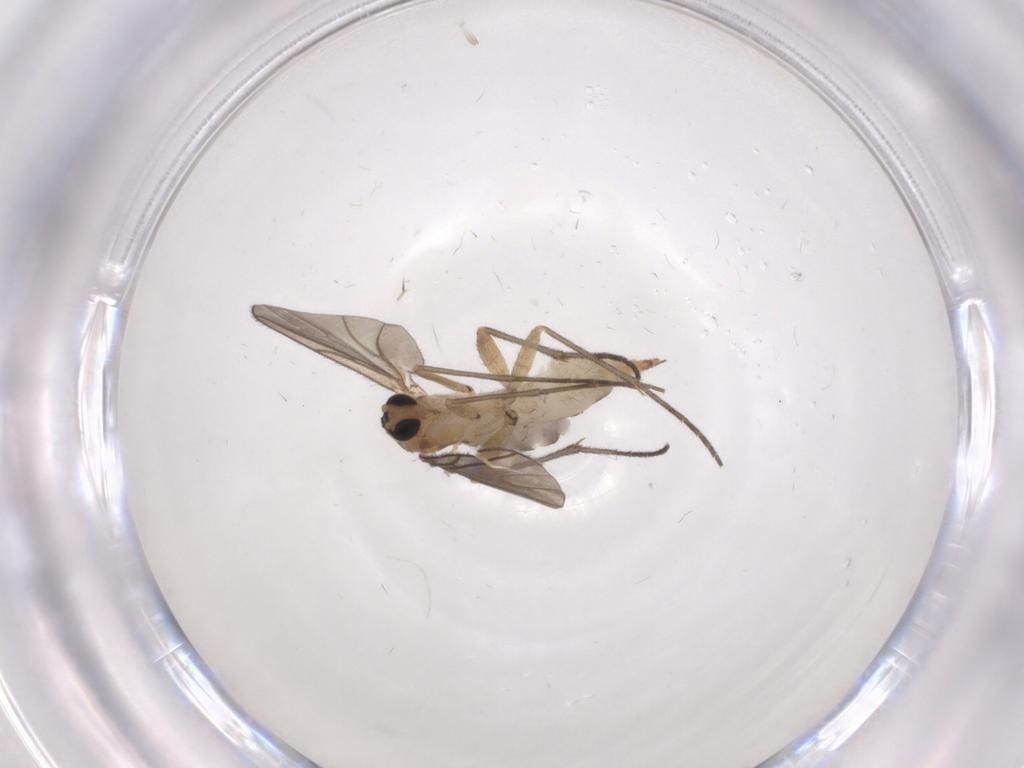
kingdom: Animalia
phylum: Arthropoda
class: Insecta
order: Diptera
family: Sciaridae
